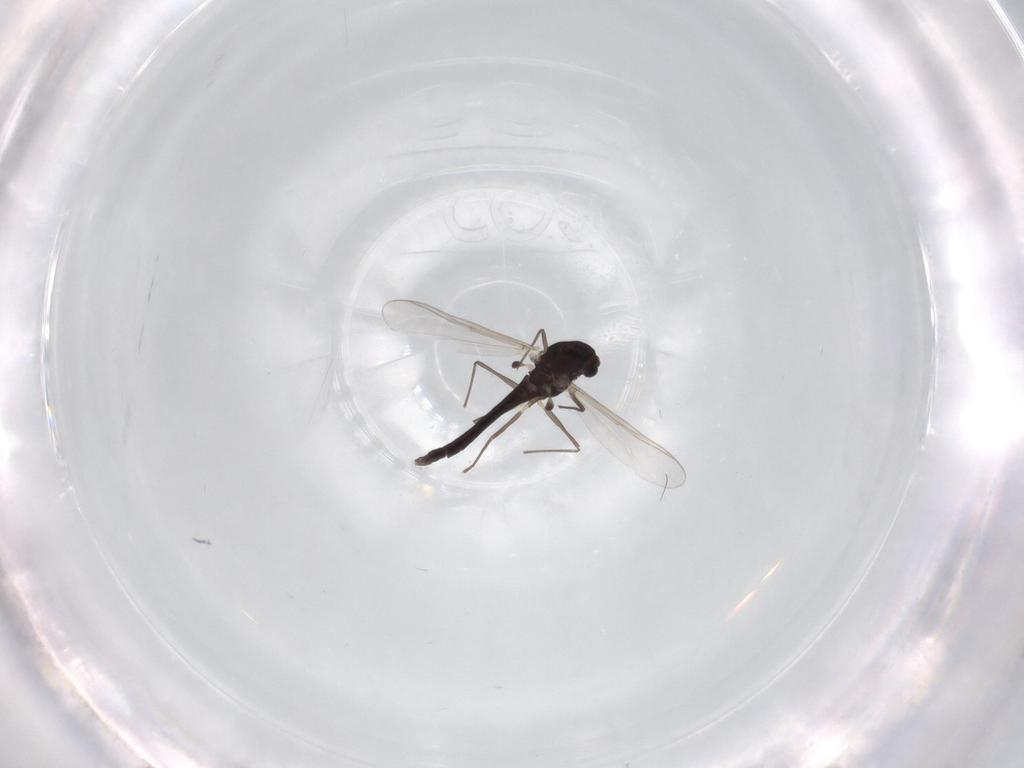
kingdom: Animalia
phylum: Arthropoda
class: Insecta
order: Diptera
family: Chironomidae
